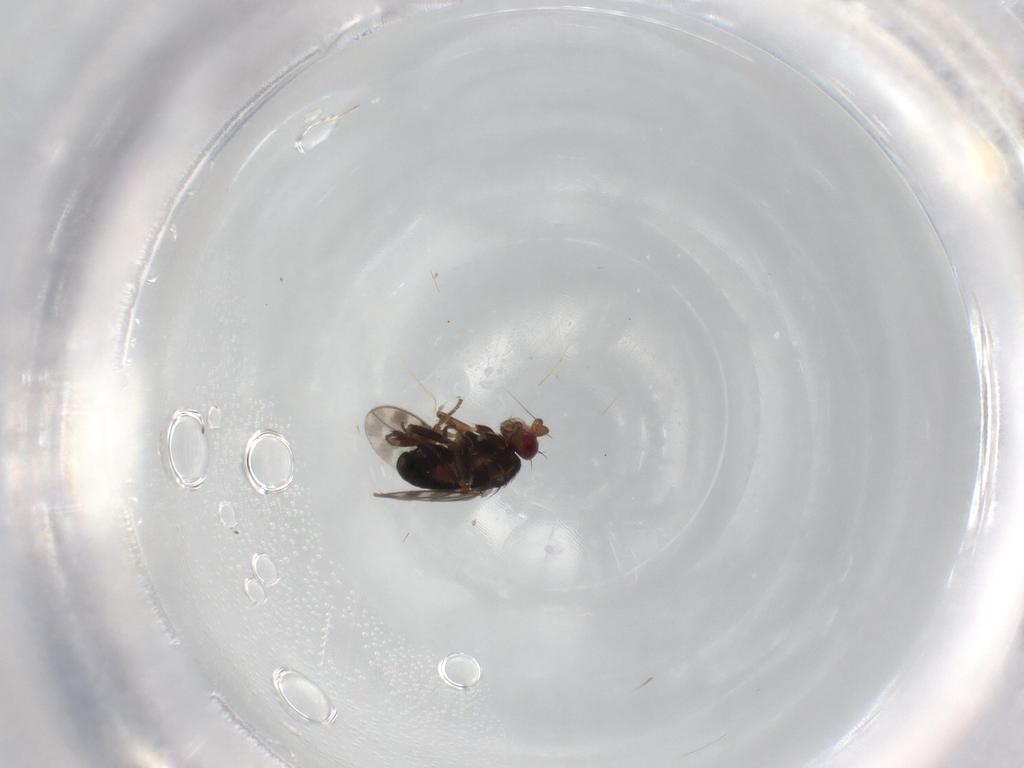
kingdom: Animalia
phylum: Arthropoda
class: Insecta
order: Diptera
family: Sphaeroceridae
